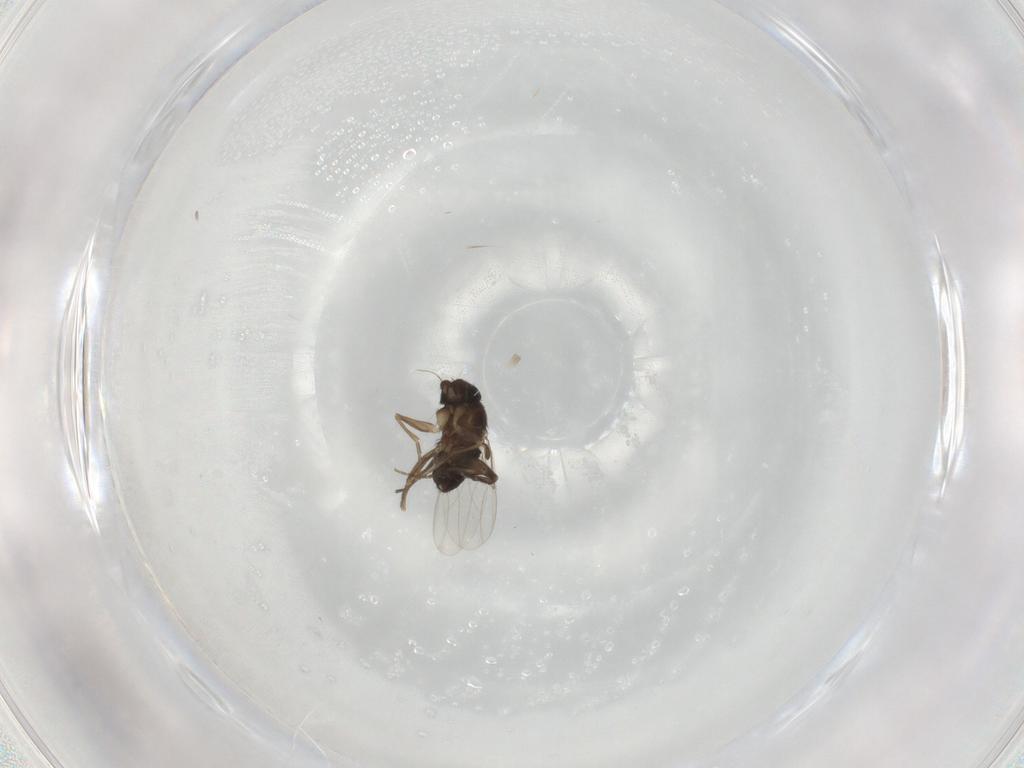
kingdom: Animalia
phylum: Arthropoda
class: Insecta
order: Diptera
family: Phoridae
